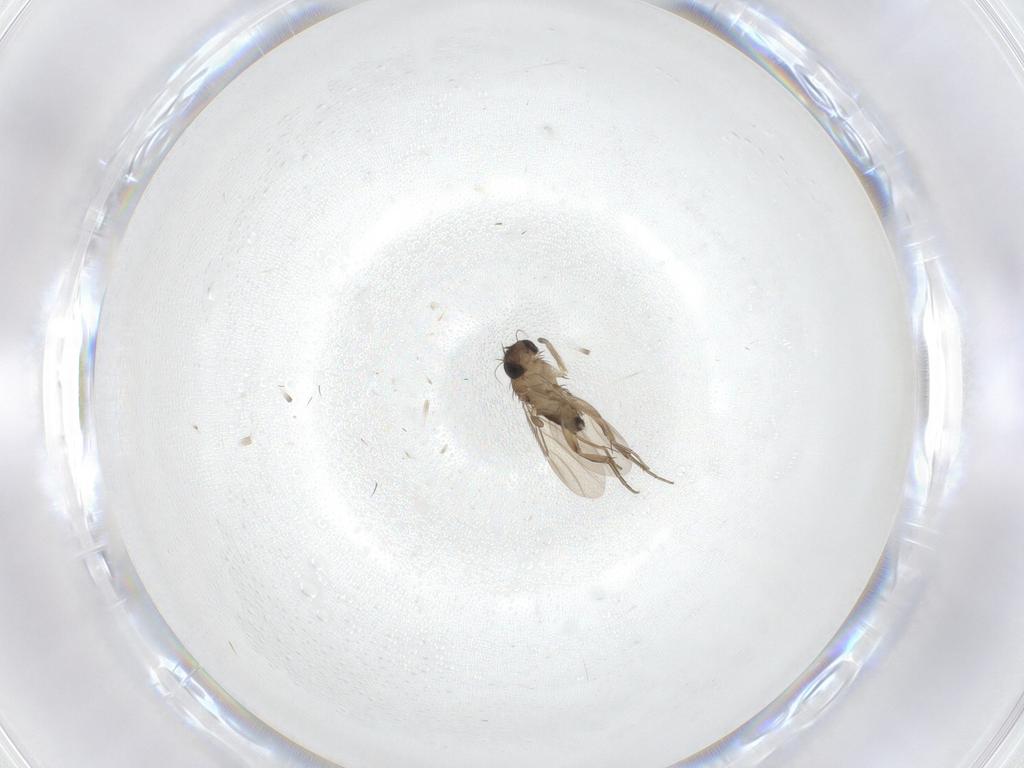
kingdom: Animalia
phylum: Arthropoda
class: Insecta
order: Diptera
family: Phoridae
